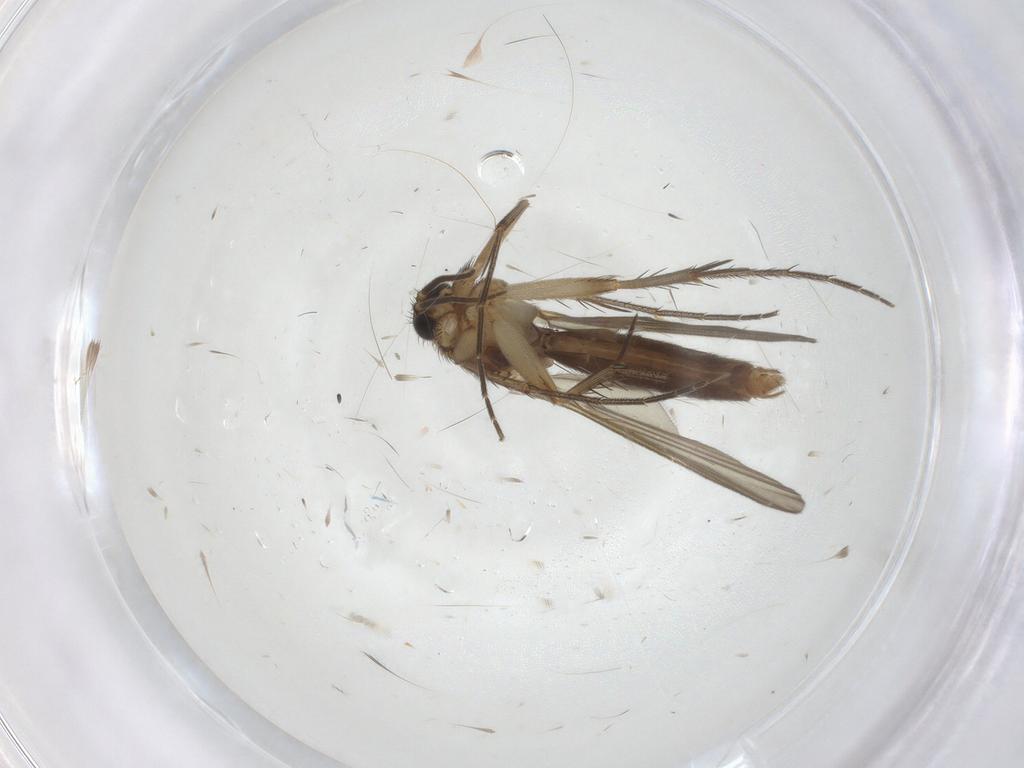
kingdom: Animalia
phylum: Arthropoda
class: Insecta
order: Diptera
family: Mycetophilidae
